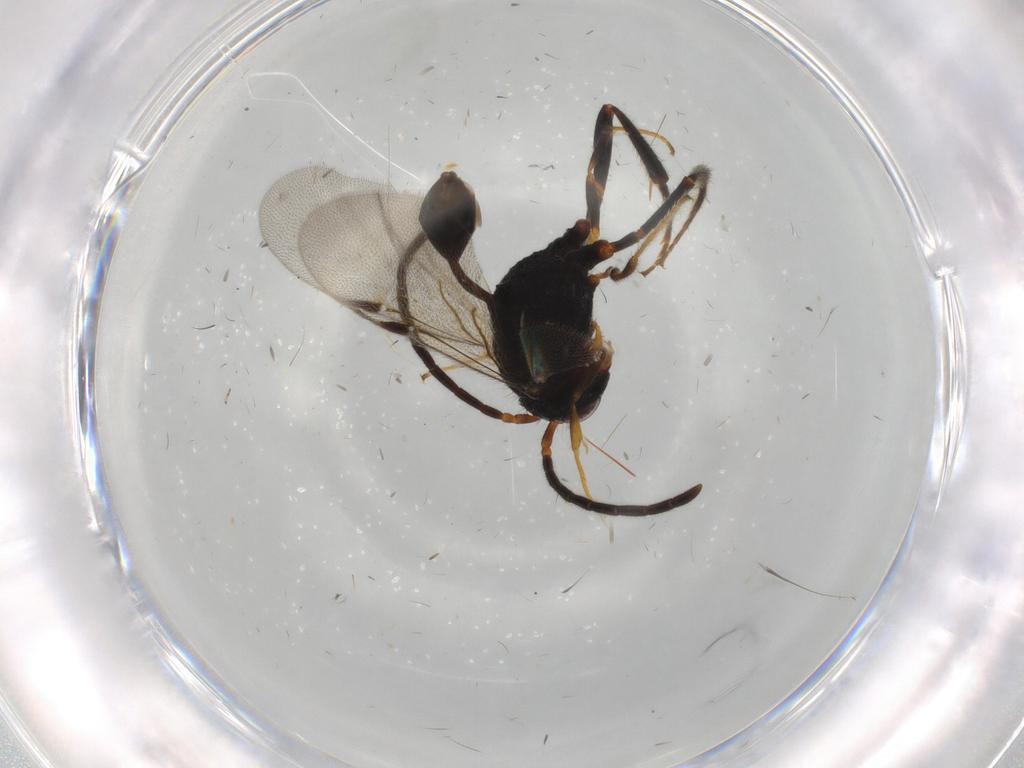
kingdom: Animalia
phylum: Arthropoda
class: Insecta
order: Hymenoptera
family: Evaniidae
